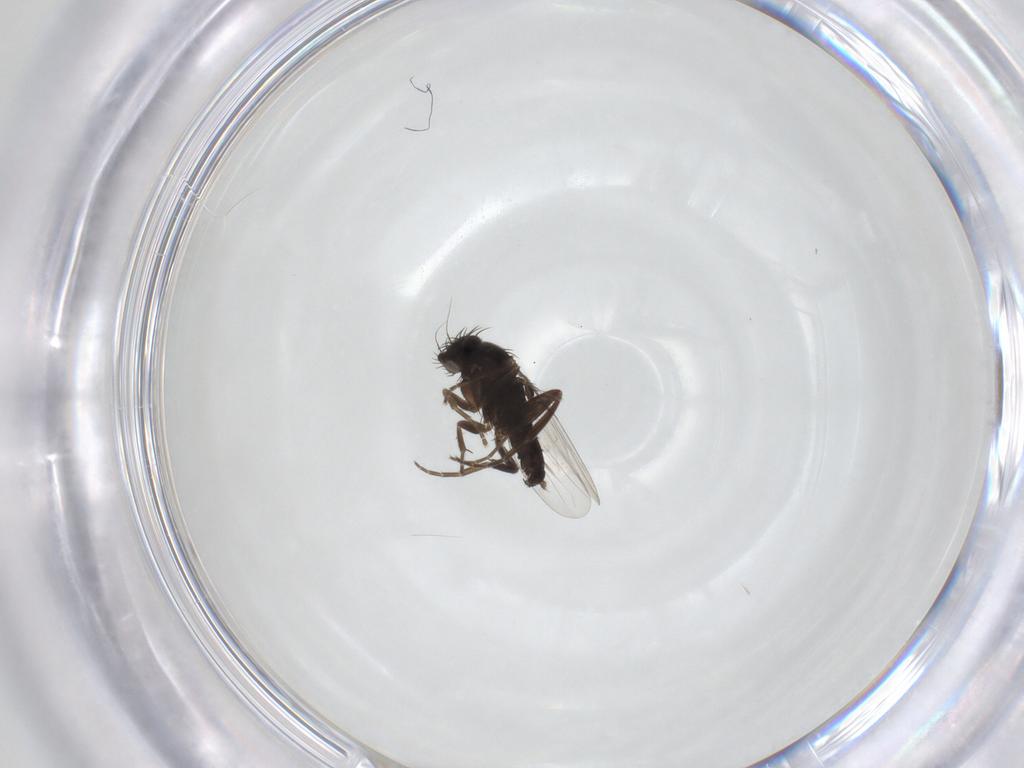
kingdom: Animalia
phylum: Arthropoda
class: Insecta
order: Diptera
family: Phoridae
